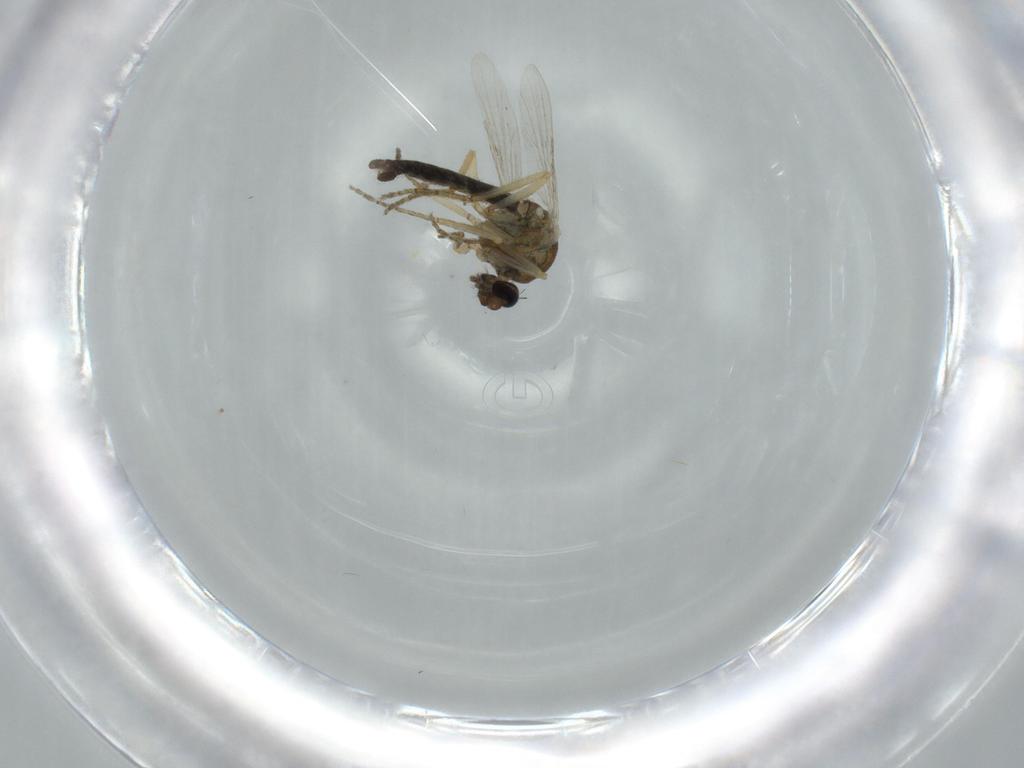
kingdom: Animalia
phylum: Arthropoda
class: Insecta
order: Diptera
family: Ceratopogonidae
